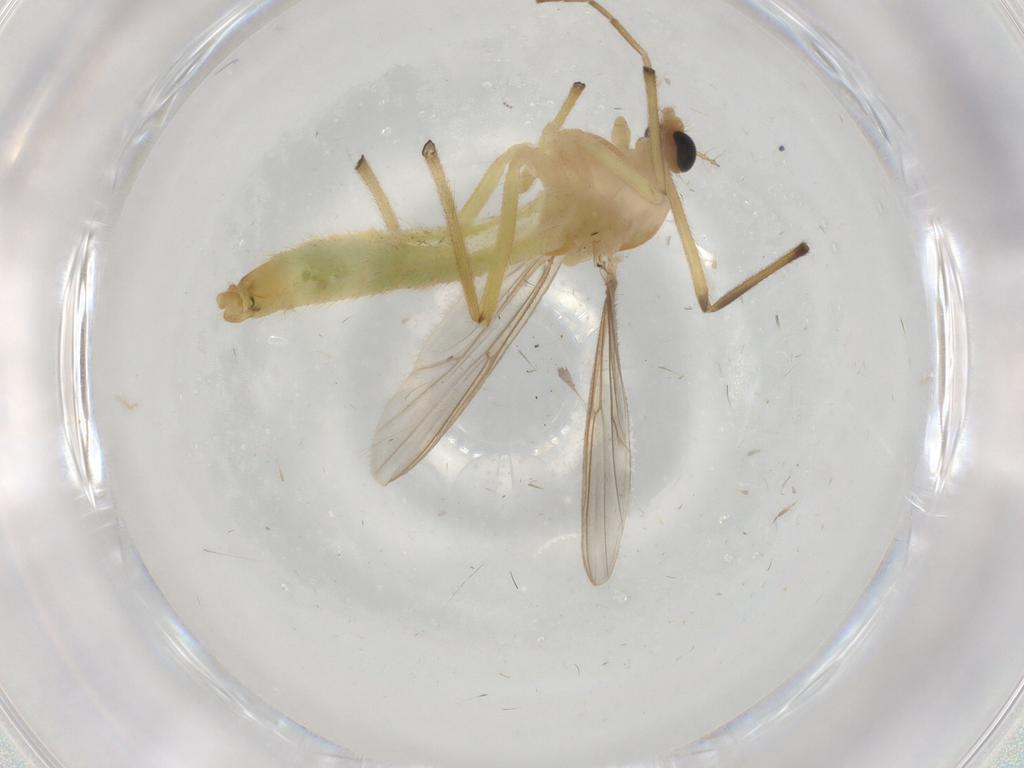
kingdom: Animalia
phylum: Arthropoda
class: Insecta
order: Diptera
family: Chironomidae
